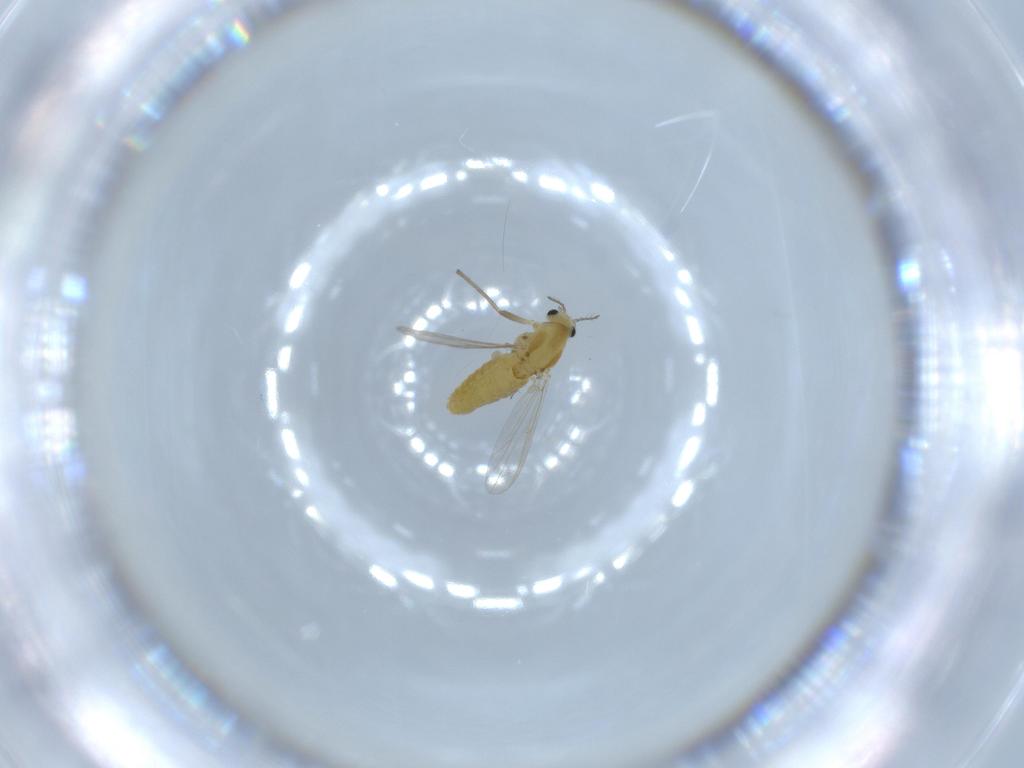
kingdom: Animalia
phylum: Arthropoda
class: Insecta
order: Diptera
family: Chironomidae
